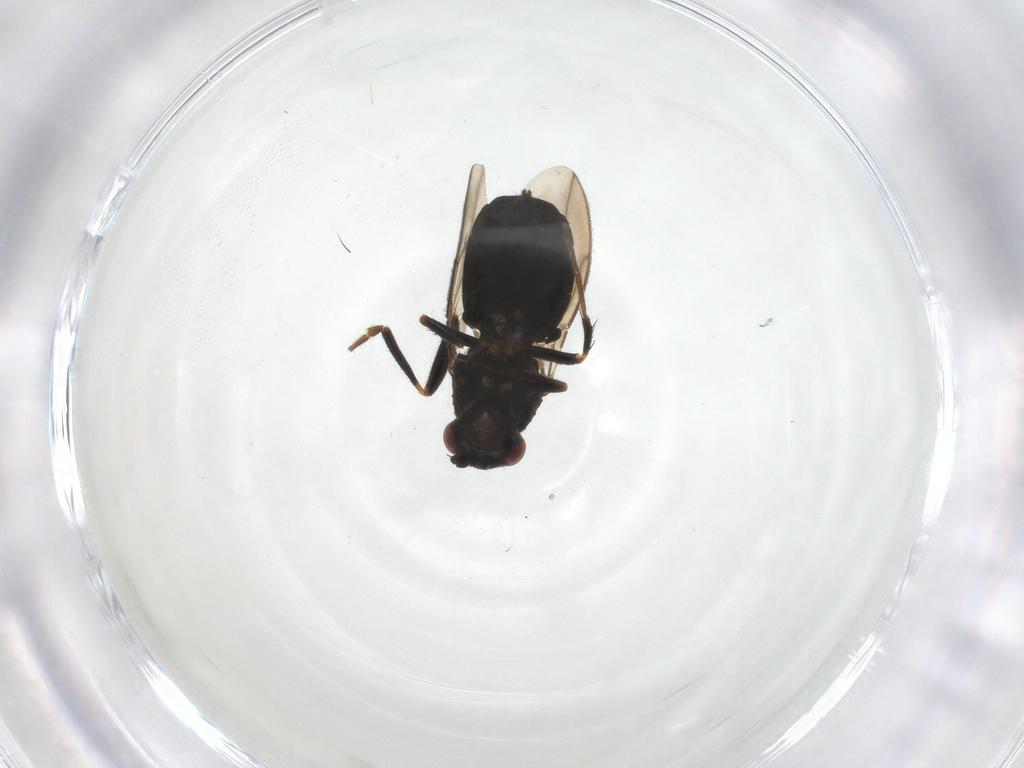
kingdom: Animalia
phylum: Arthropoda
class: Insecta
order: Diptera
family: Sphaeroceridae
